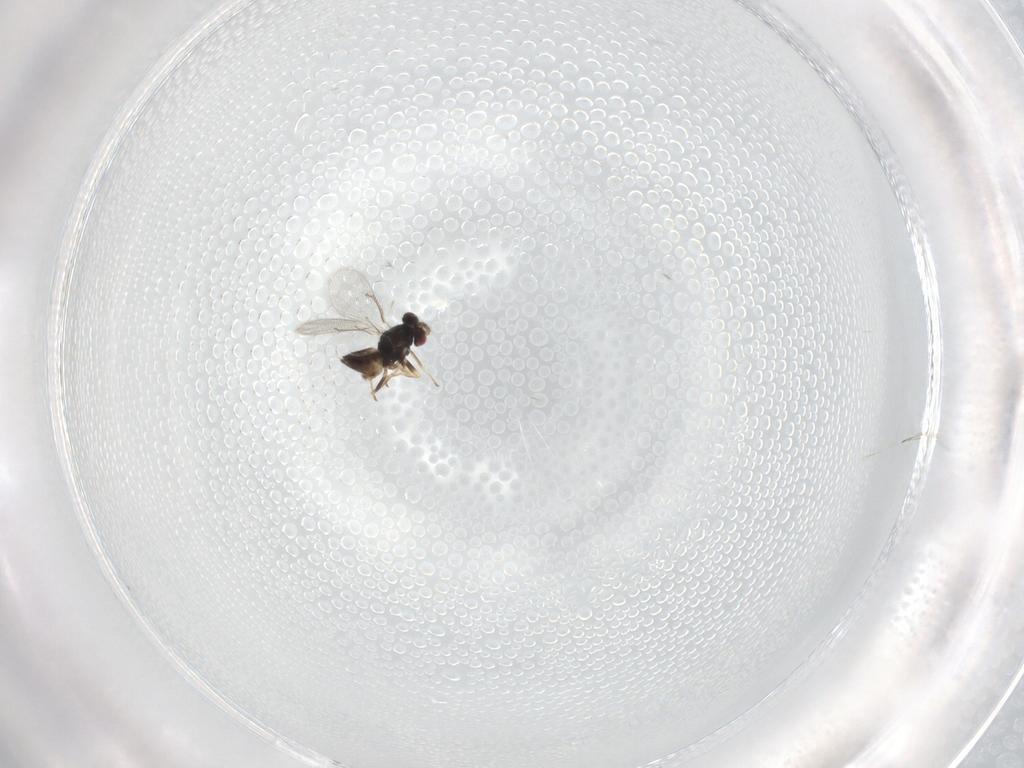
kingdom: Animalia
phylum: Arthropoda
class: Insecta
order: Hymenoptera
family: Eulophidae
